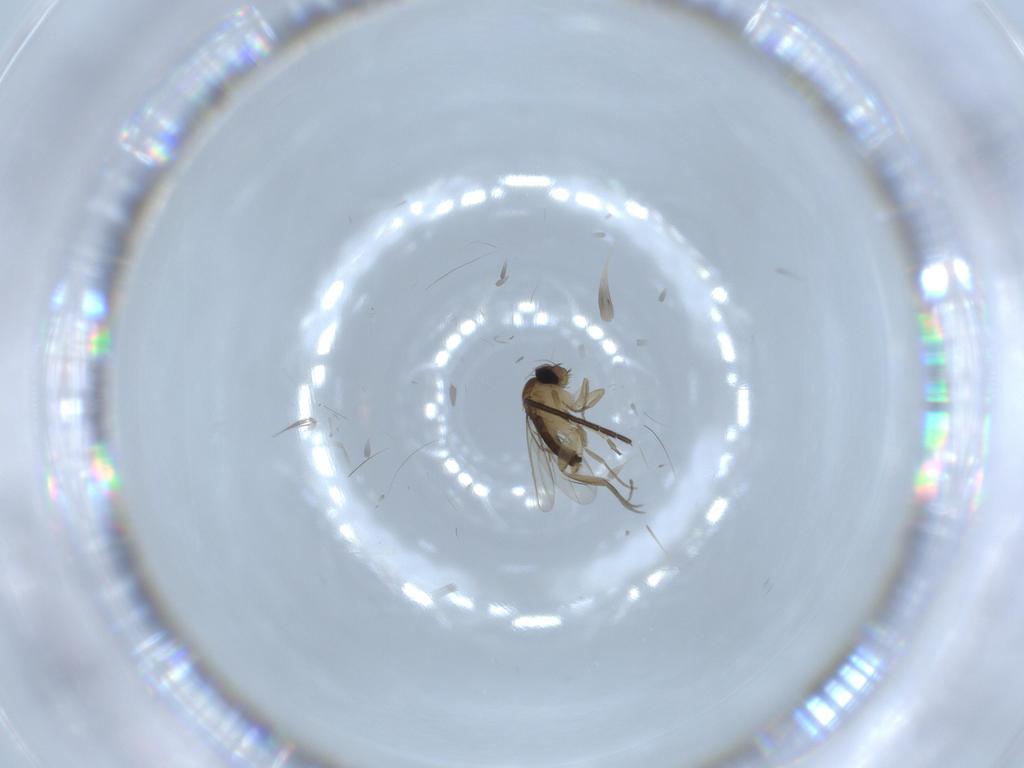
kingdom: Animalia
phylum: Arthropoda
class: Insecta
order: Diptera
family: Phoridae
